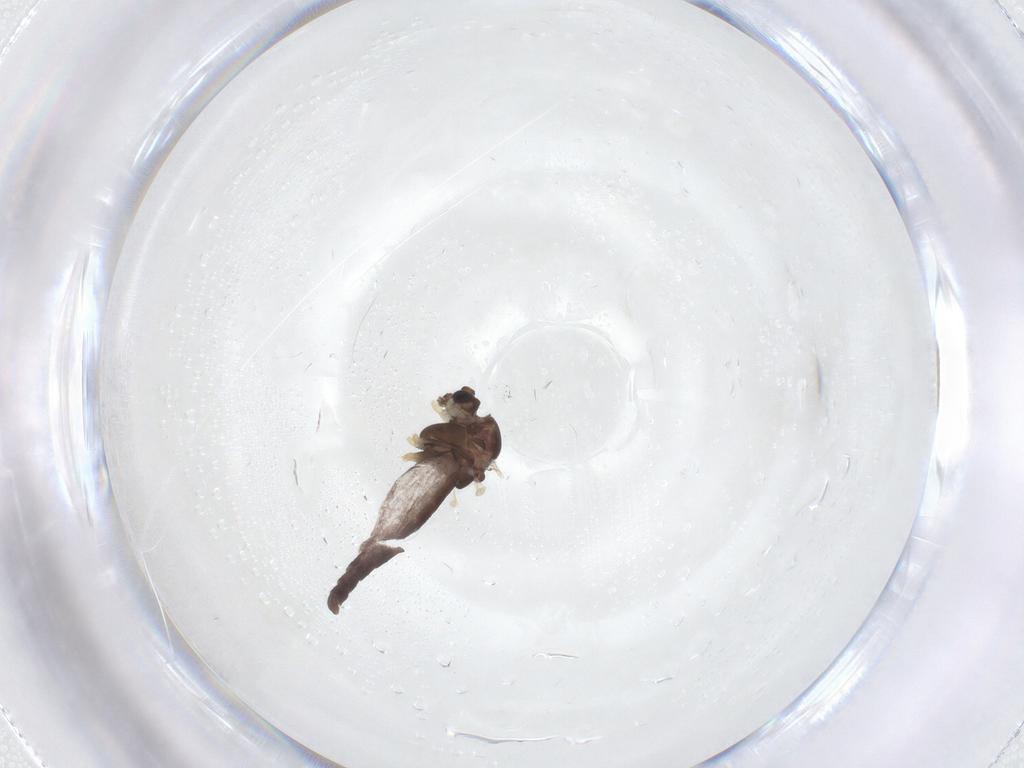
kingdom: Animalia
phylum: Arthropoda
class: Insecta
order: Diptera
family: Chironomidae
